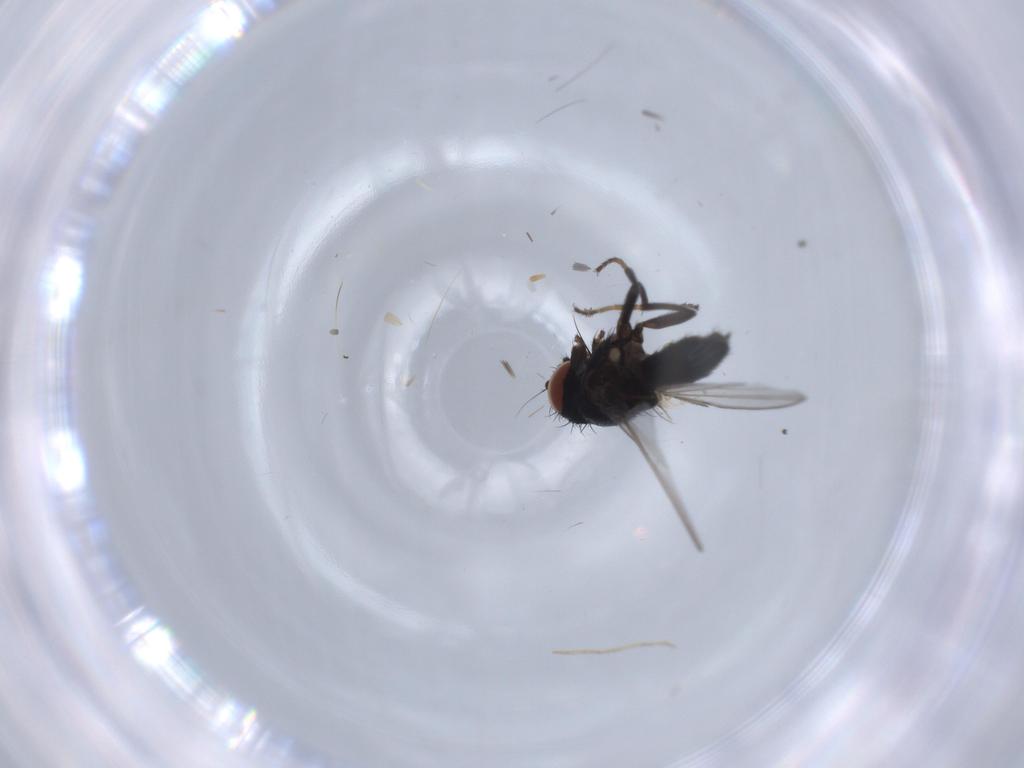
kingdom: Animalia
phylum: Arthropoda
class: Insecta
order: Diptera
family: Milichiidae
